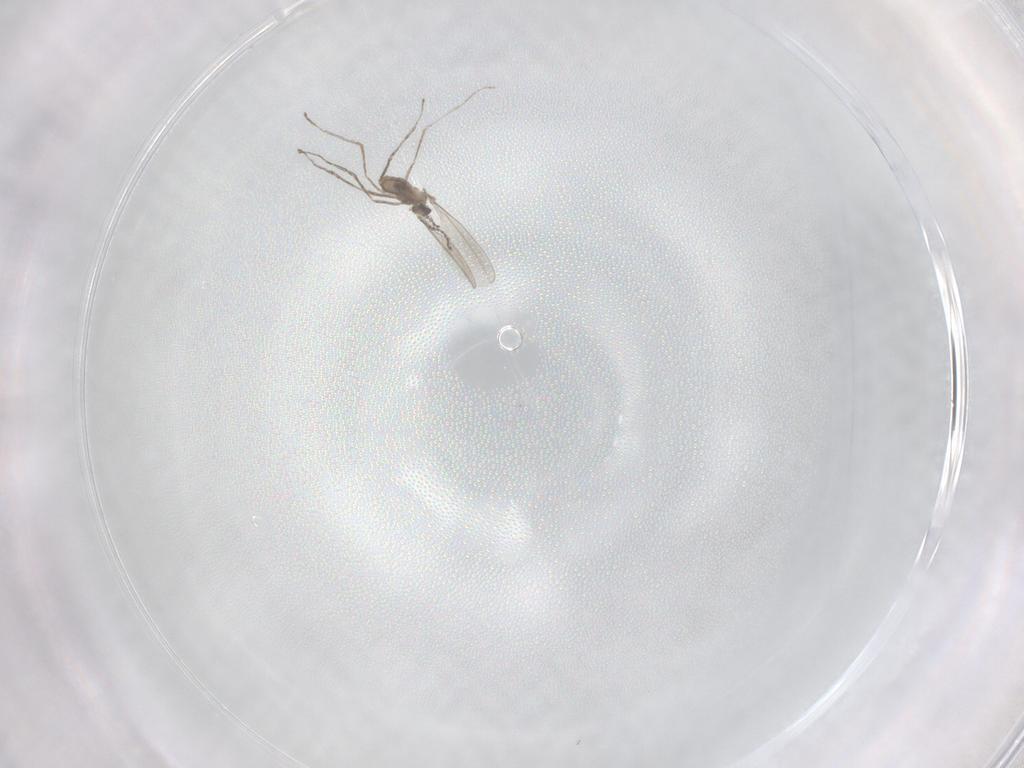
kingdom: Animalia
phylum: Arthropoda
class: Insecta
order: Diptera
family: Cecidomyiidae
